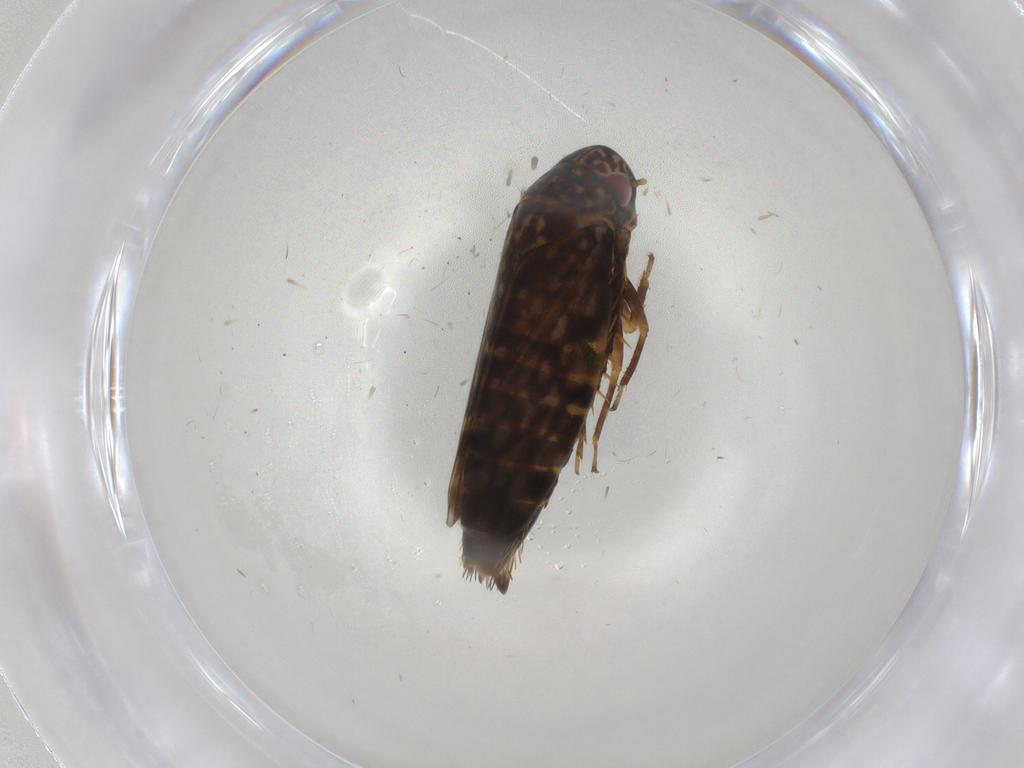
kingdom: Animalia
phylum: Arthropoda
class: Insecta
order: Hemiptera
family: Cicadellidae
